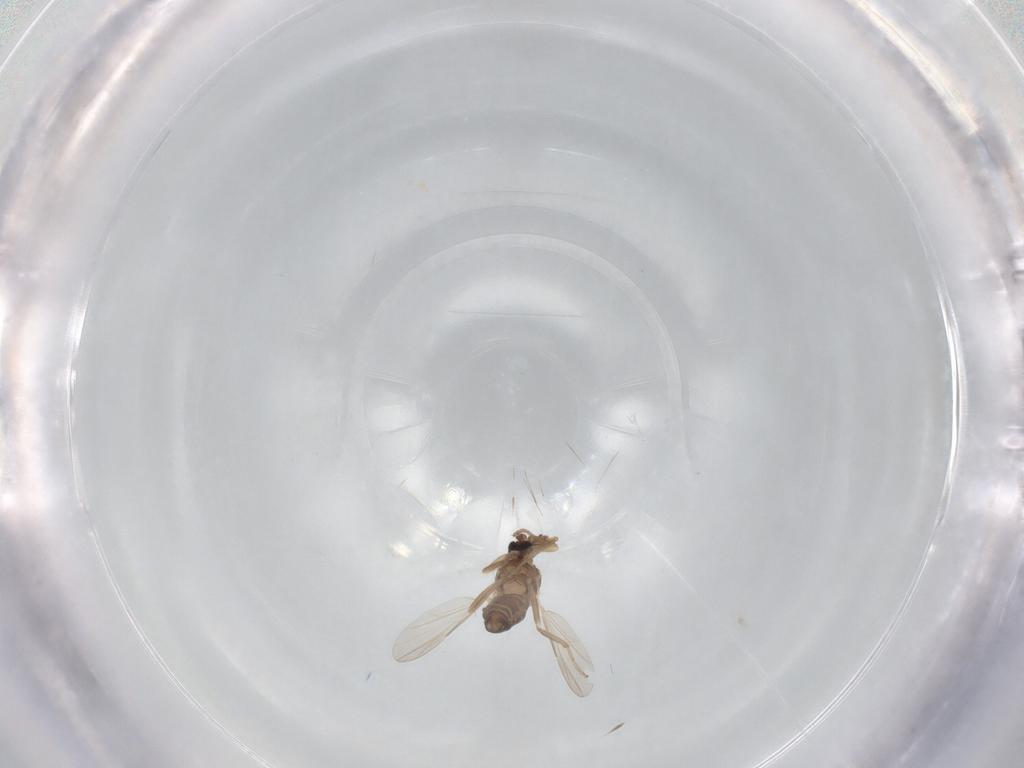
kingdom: Animalia
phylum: Arthropoda
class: Insecta
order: Diptera
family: Ceratopogonidae
